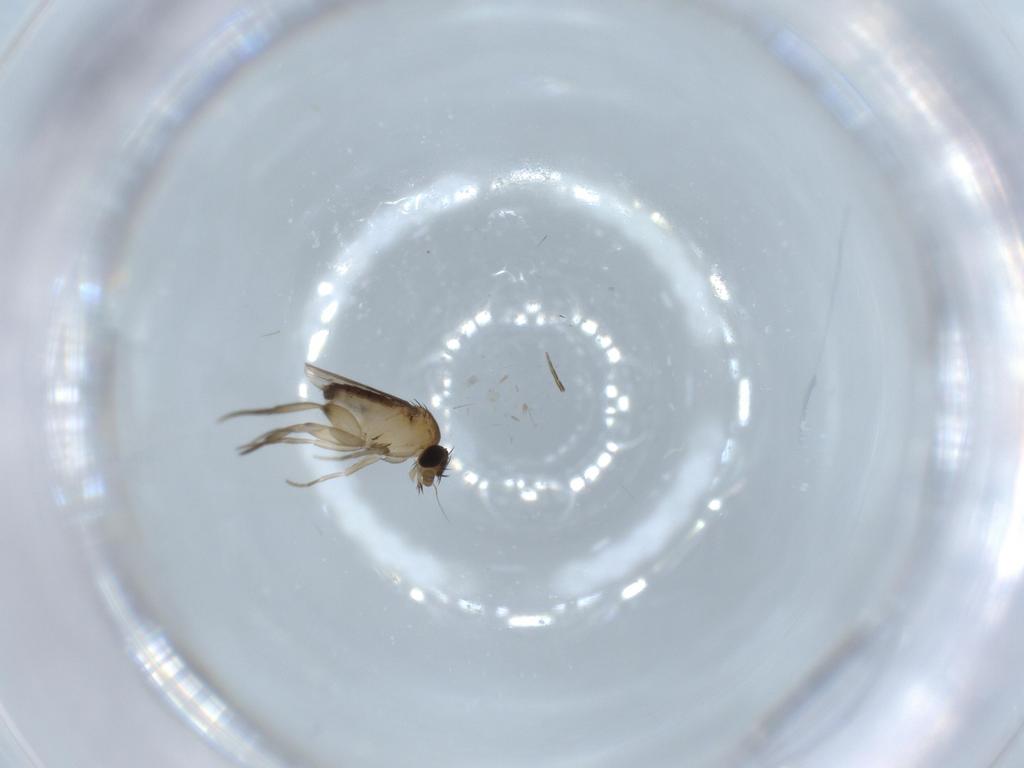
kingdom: Animalia
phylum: Arthropoda
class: Insecta
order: Diptera
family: Phoridae
